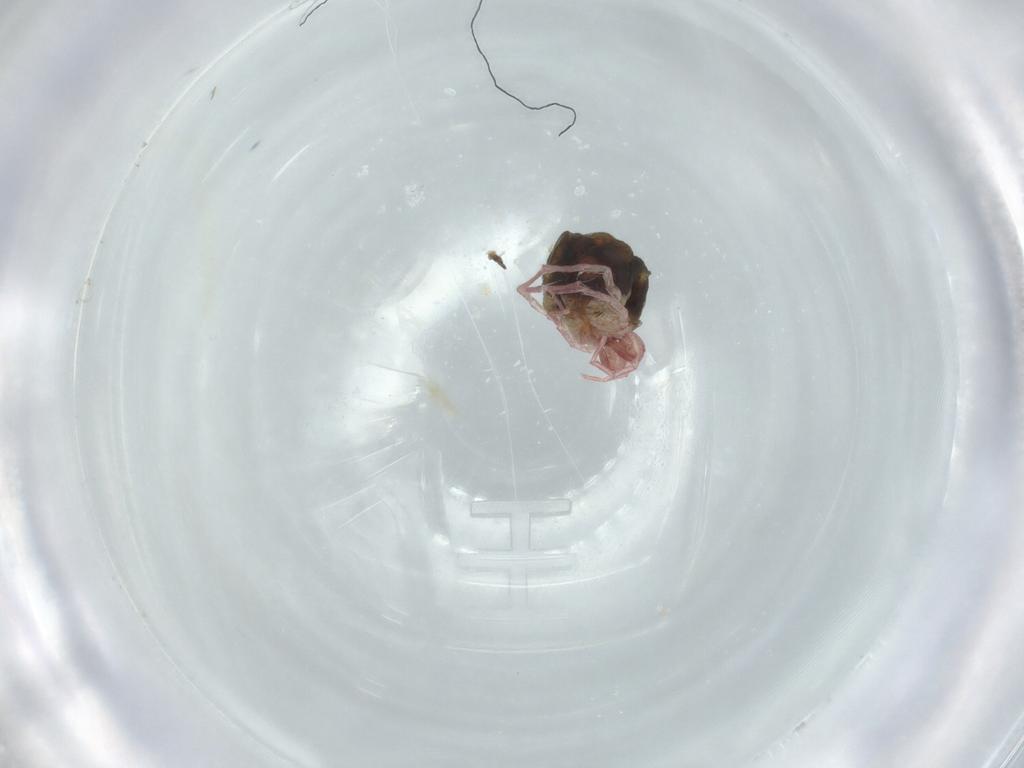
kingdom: Animalia
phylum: Arthropoda
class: Arachnida
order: Trombidiformes
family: Pionidae
